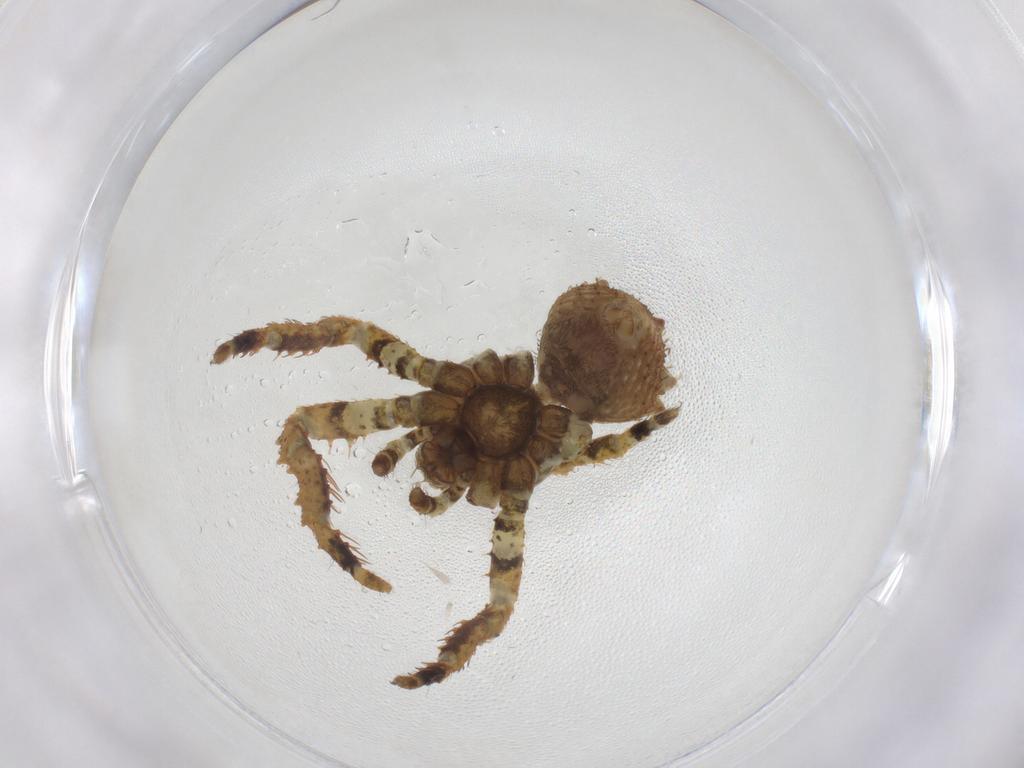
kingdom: Animalia
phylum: Arthropoda
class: Arachnida
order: Araneae
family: Thomisidae
